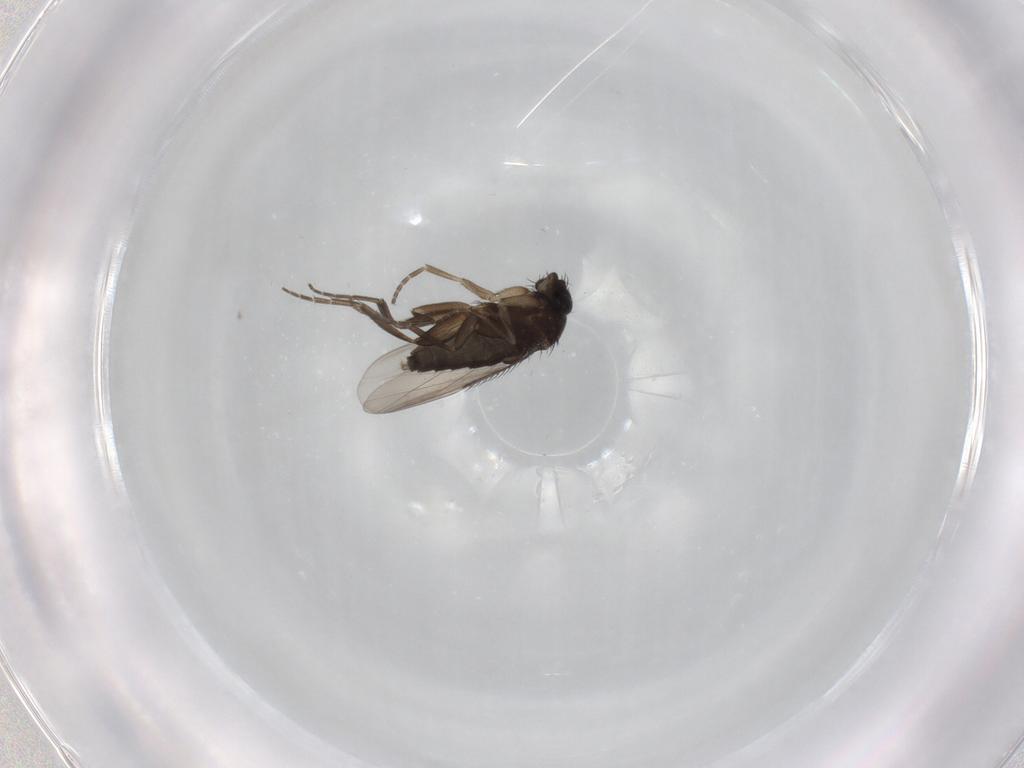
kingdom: Animalia
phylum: Arthropoda
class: Insecta
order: Diptera
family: Phoridae
